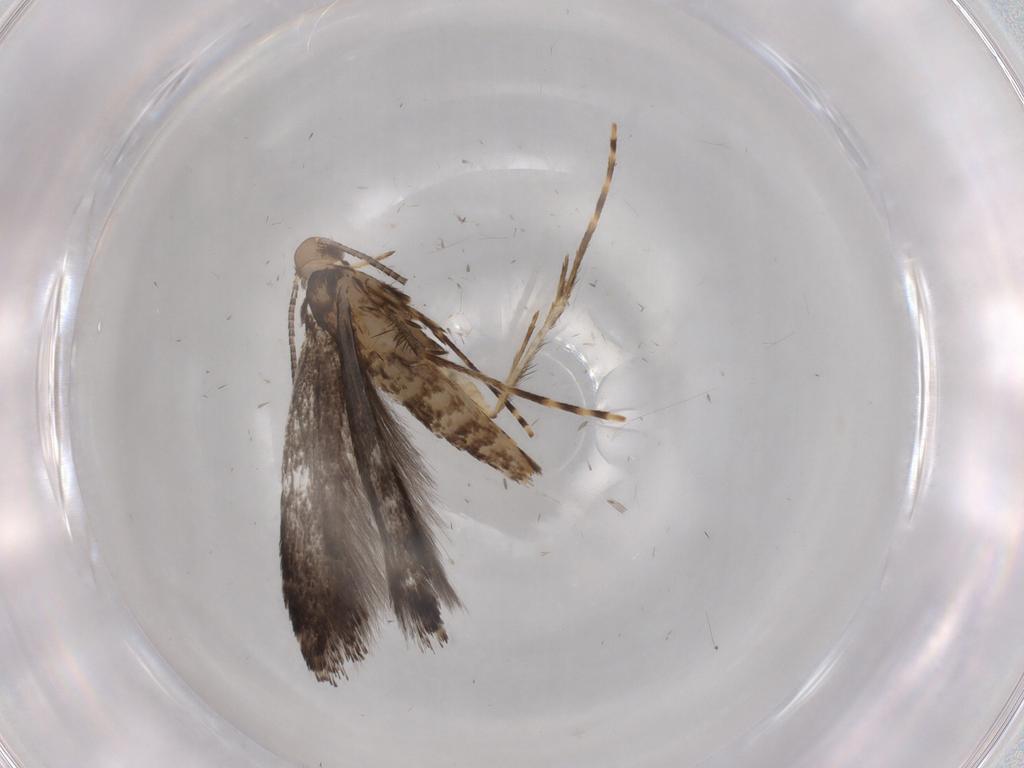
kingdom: Animalia
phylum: Arthropoda
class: Insecta
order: Lepidoptera
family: Gracillariidae
